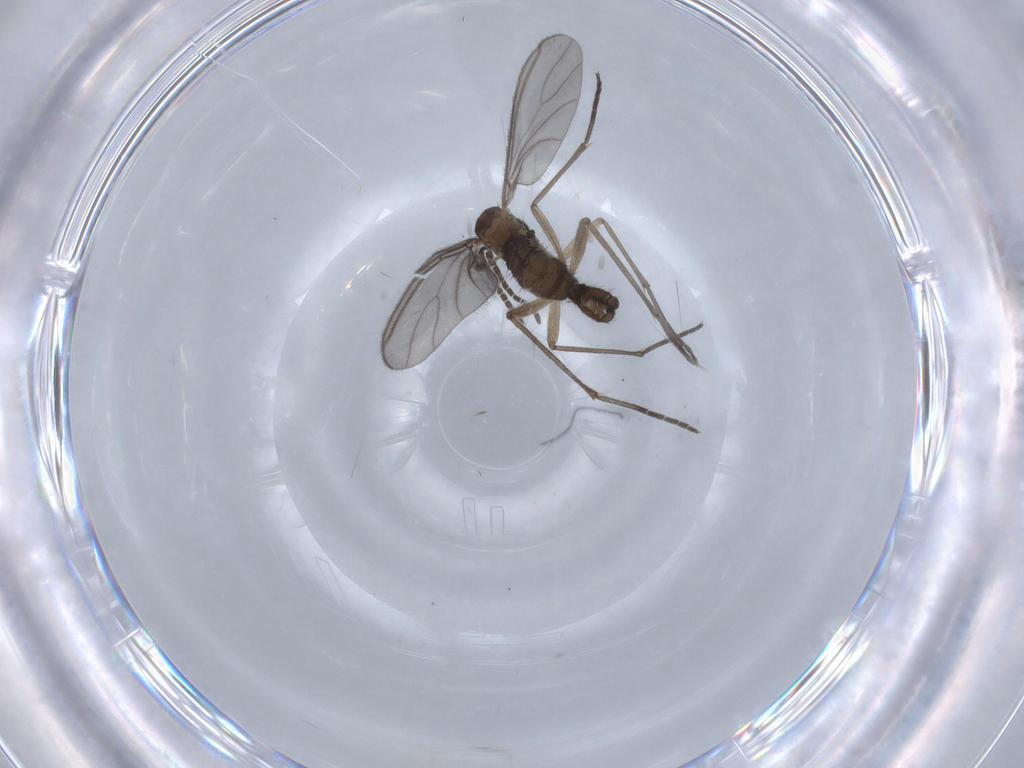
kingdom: Animalia
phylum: Arthropoda
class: Insecta
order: Diptera
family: Sciaridae
